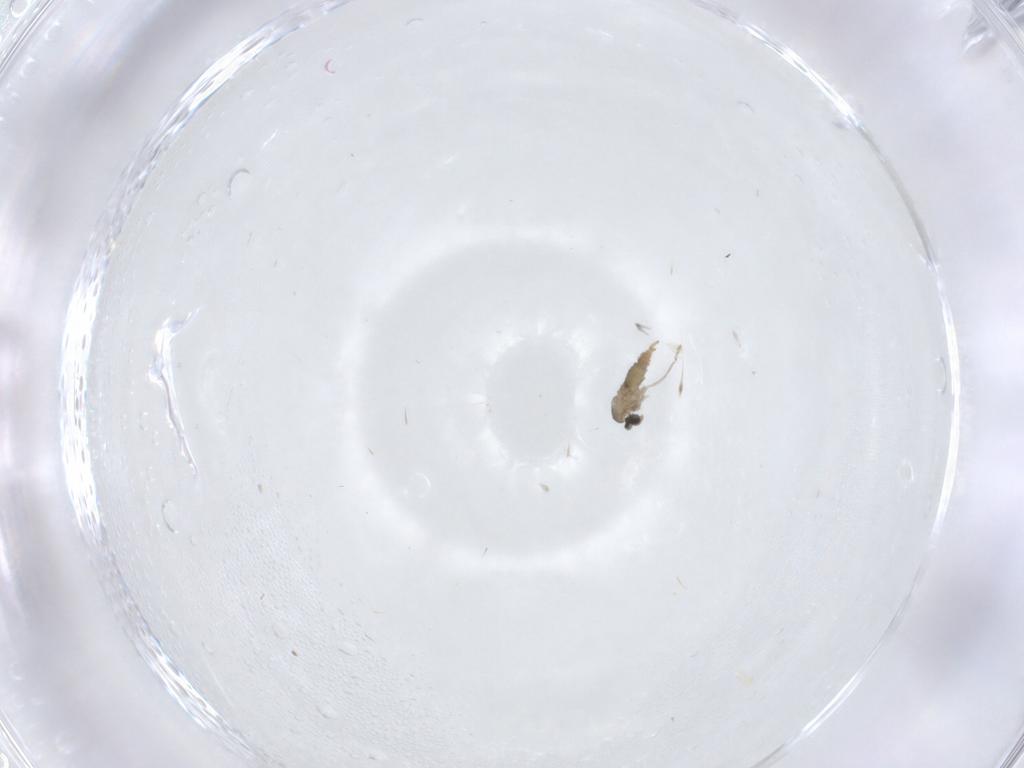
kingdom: Animalia
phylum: Arthropoda
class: Insecta
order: Diptera
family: Cecidomyiidae
